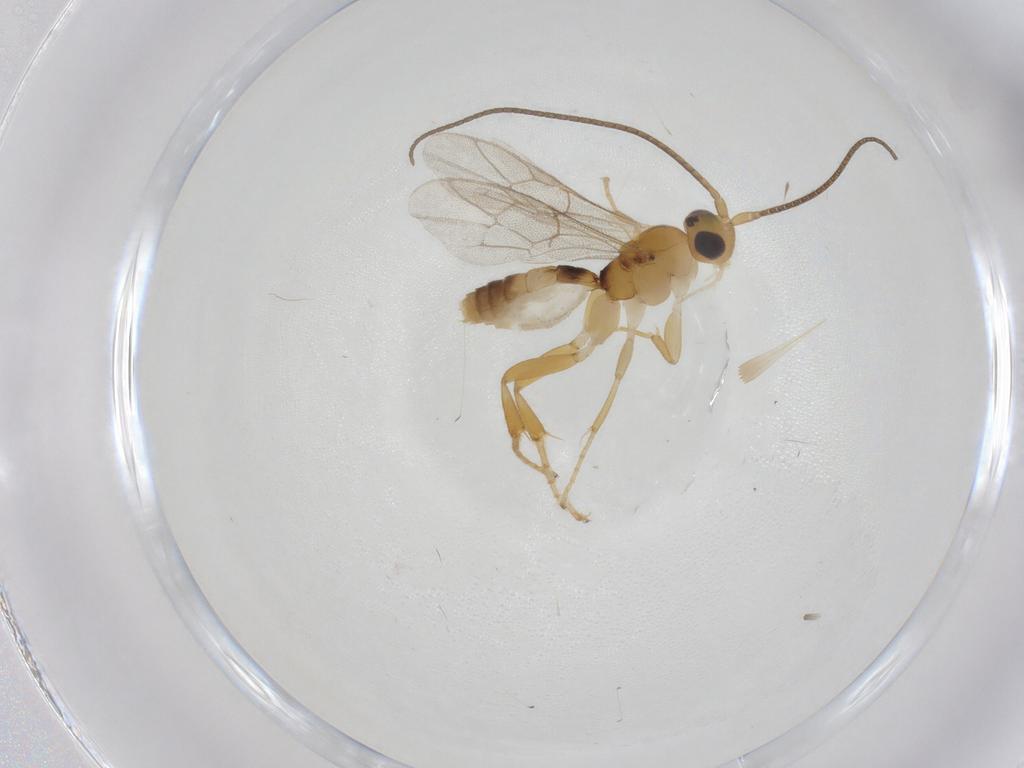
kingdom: Animalia
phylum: Arthropoda
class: Insecta
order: Hymenoptera
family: Ichneumonidae
